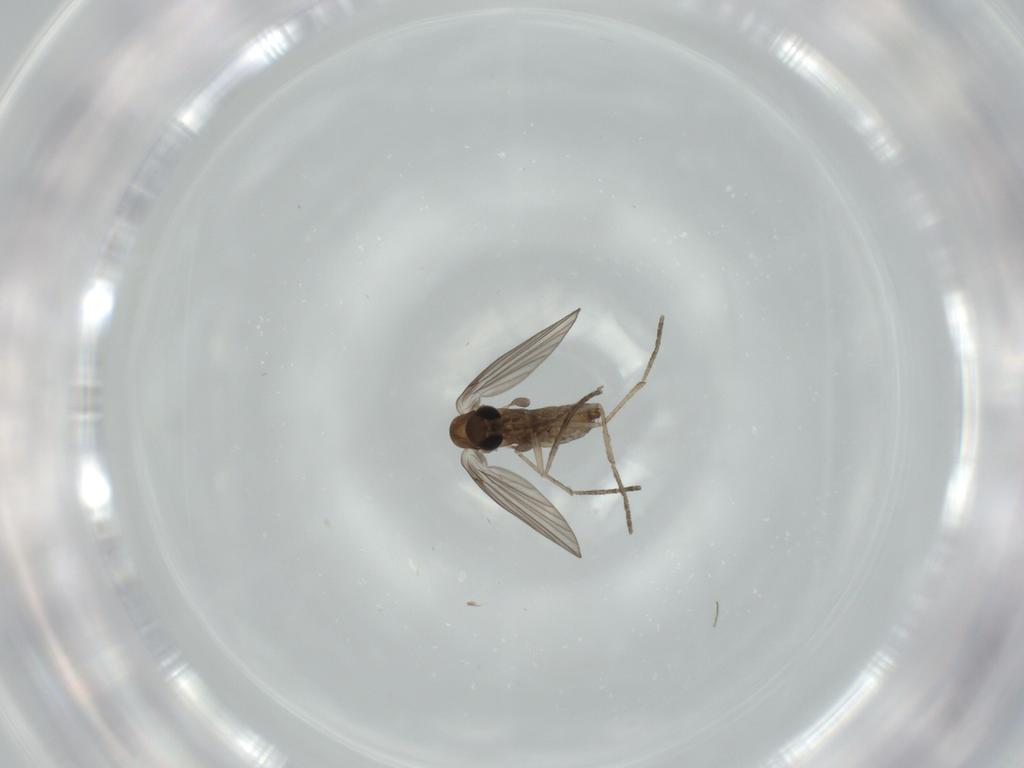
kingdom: Animalia
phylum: Arthropoda
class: Insecta
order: Diptera
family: Psychodidae
